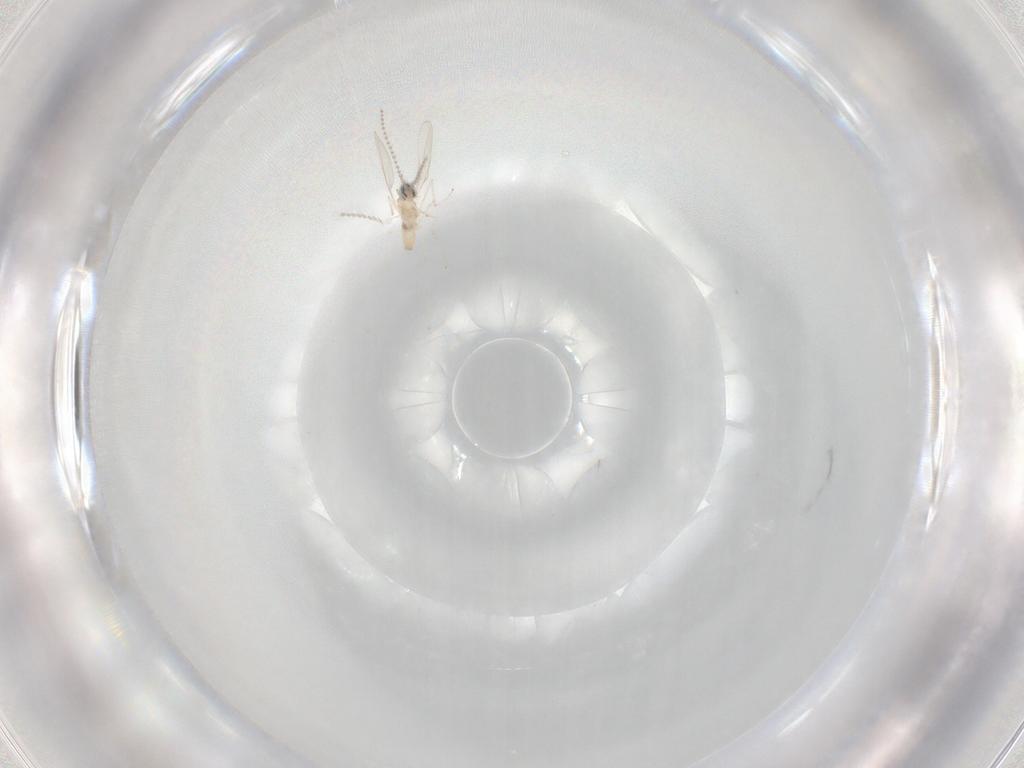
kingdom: Animalia
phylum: Arthropoda
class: Insecta
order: Diptera
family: Cecidomyiidae
